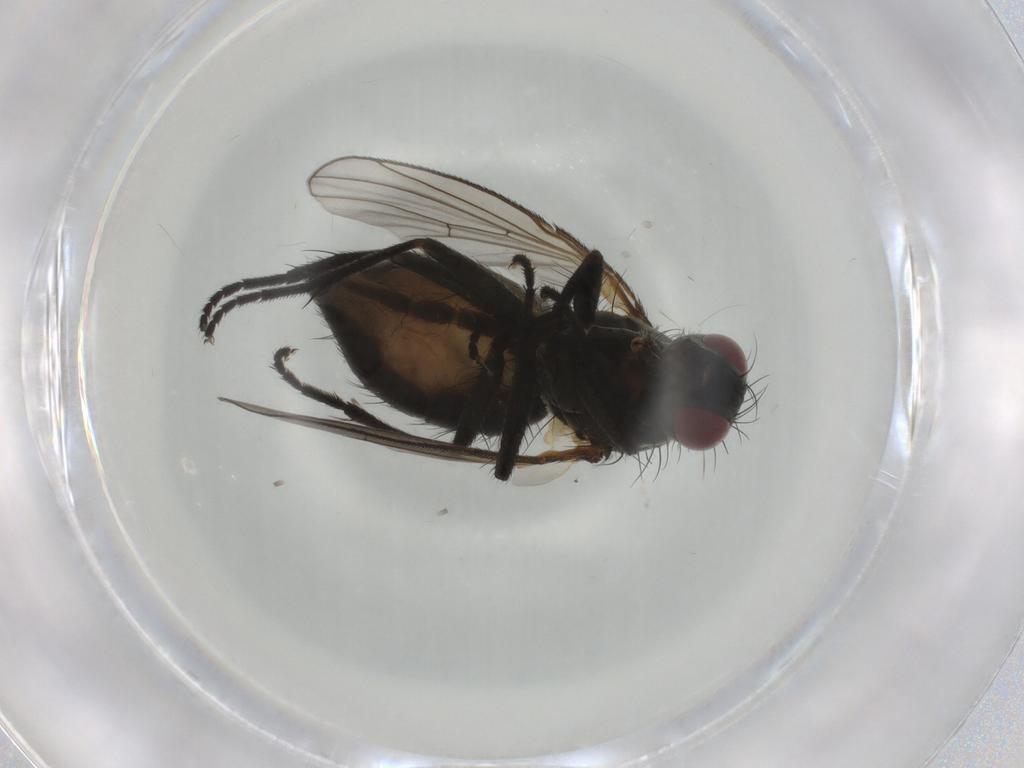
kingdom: Animalia
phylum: Arthropoda
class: Insecta
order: Diptera
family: Muscidae
